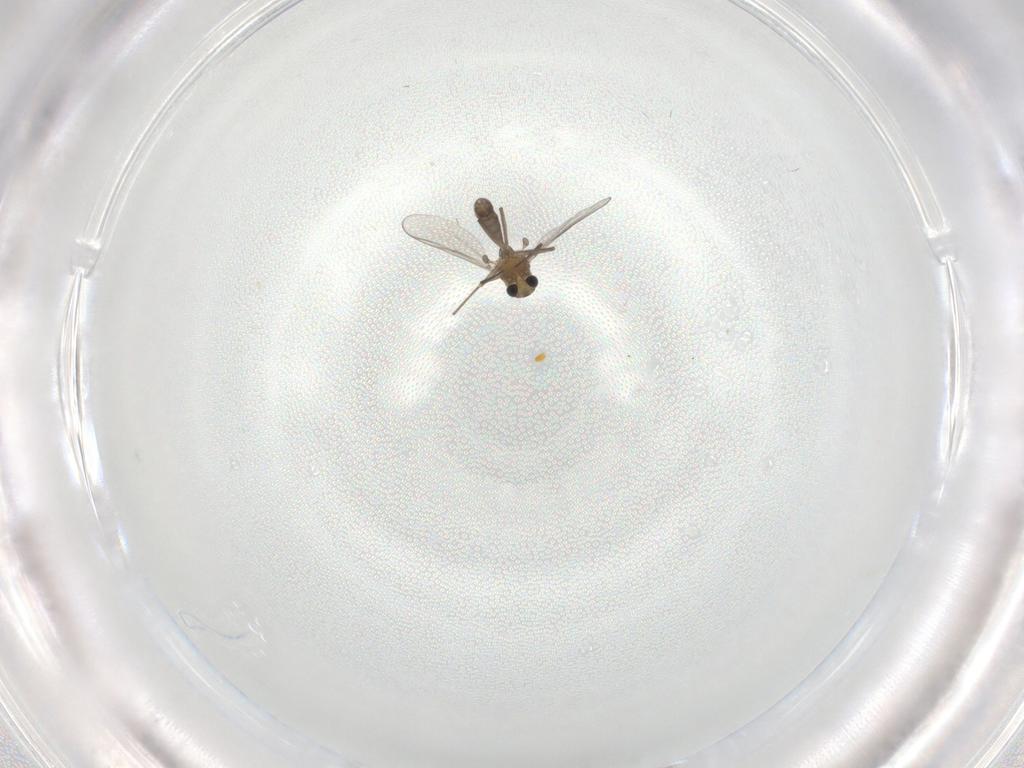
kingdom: Animalia
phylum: Arthropoda
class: Insecta
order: Diptera
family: Chironomidae
